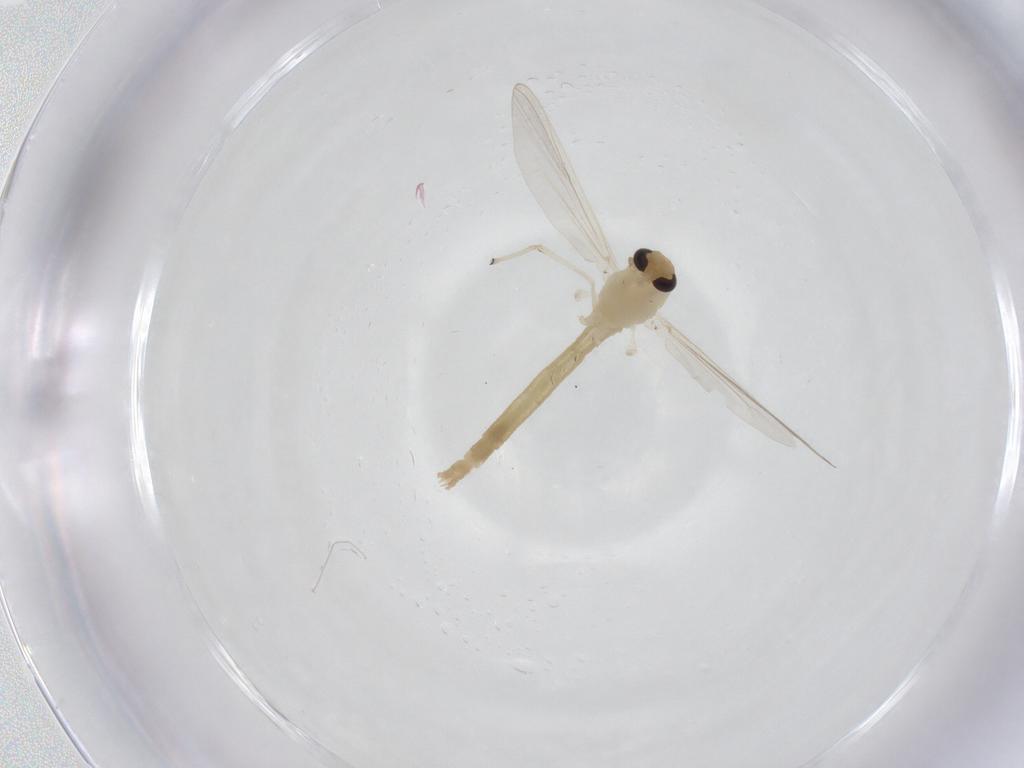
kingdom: Animalia
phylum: Arthropoda
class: Insecta
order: Diptera
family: Chironomidae
